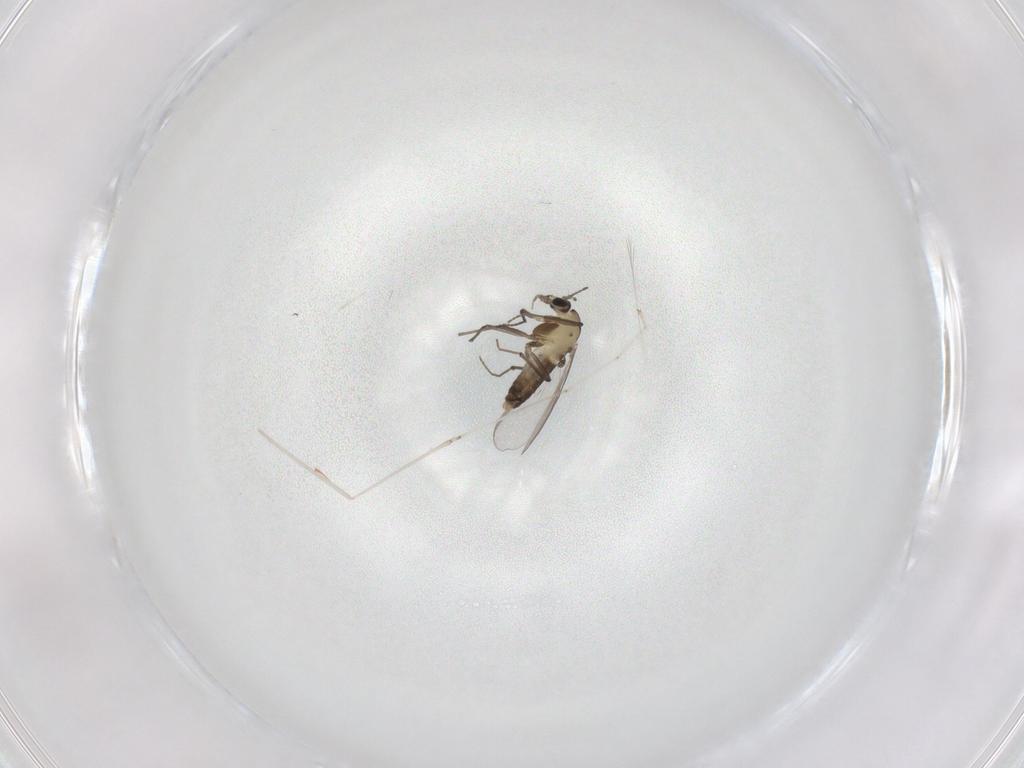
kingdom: Animalia
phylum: Arthropoda
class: Insecta
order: Diptera
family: Chironomidae
